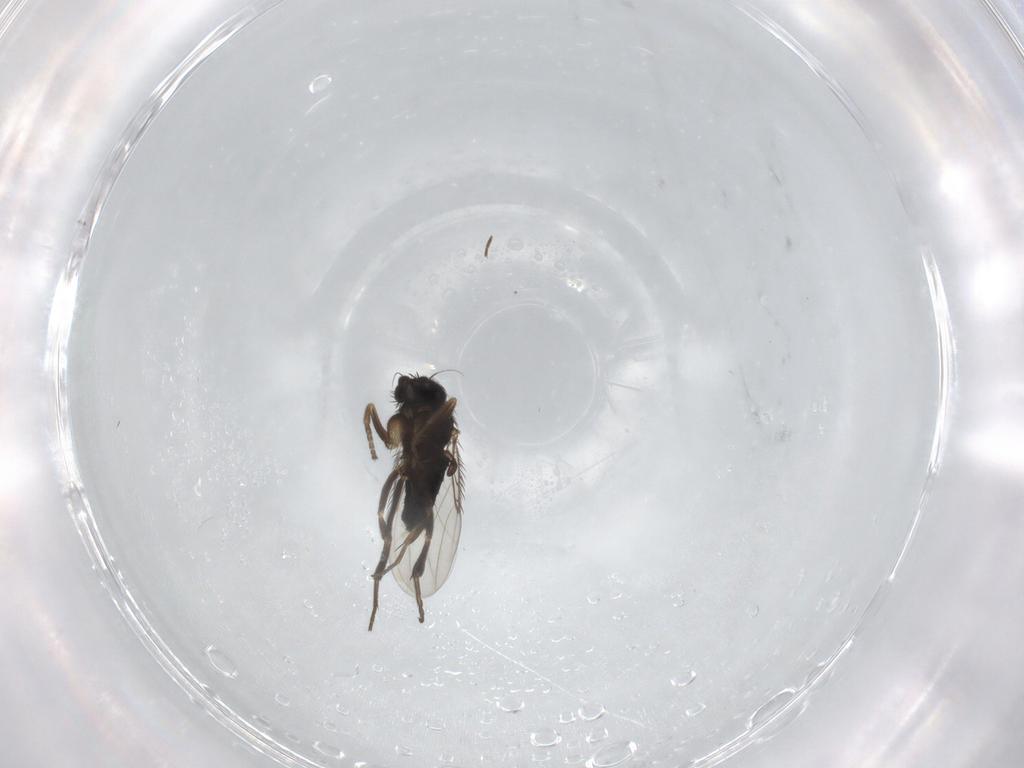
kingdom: Animalia
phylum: Arthropoda
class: Insecta
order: Diptera
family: Phoridae
